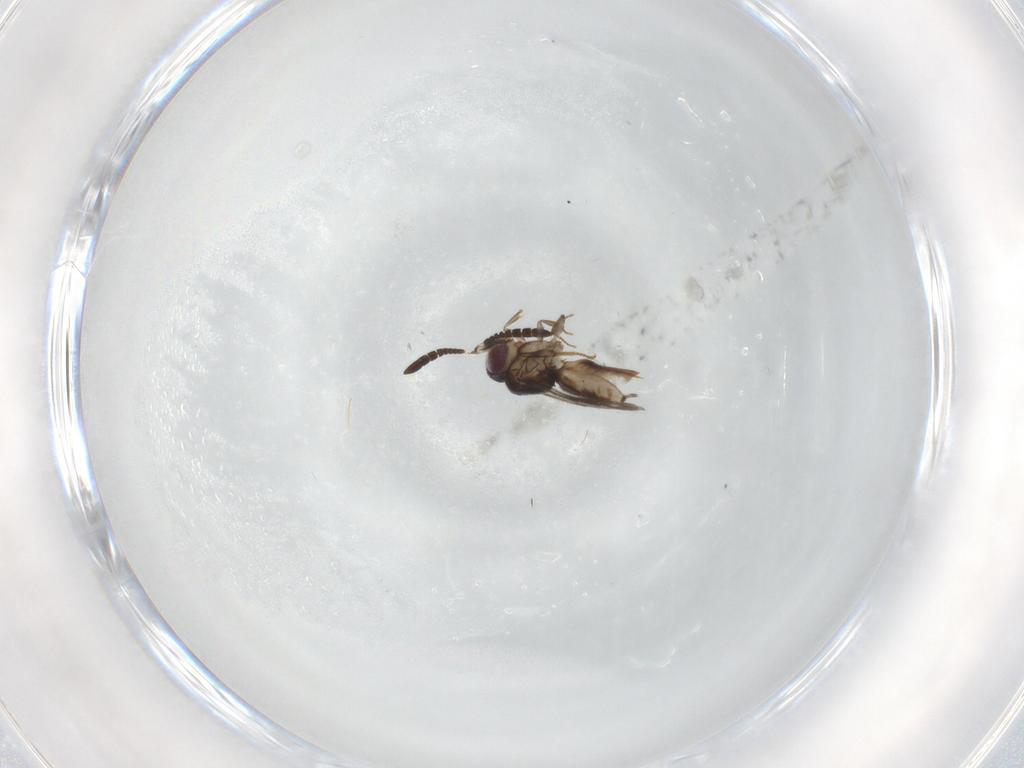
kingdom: Animalia
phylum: Arthropoda
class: Insecta
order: Hymenoptera
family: Ceraphronidae
